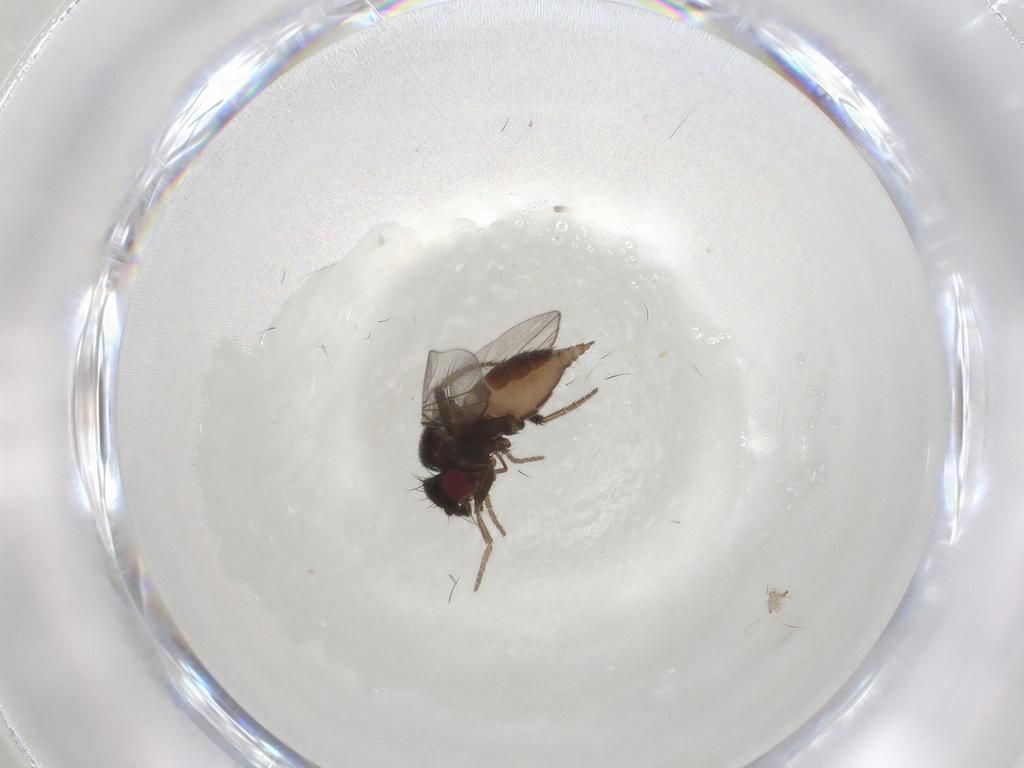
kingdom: Animalia
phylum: Arthropoda
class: Insecta
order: Diptera
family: Milichiidae
